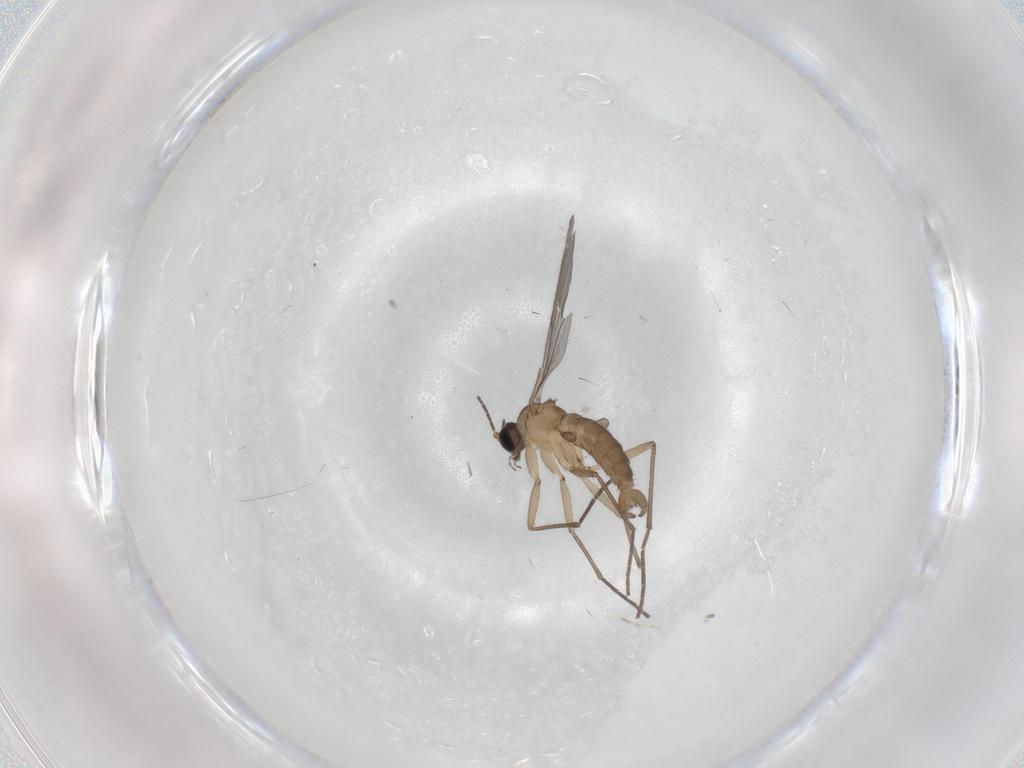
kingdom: Animalia
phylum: Arthropoda
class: Insecta
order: Diptera
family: Sciaridae
